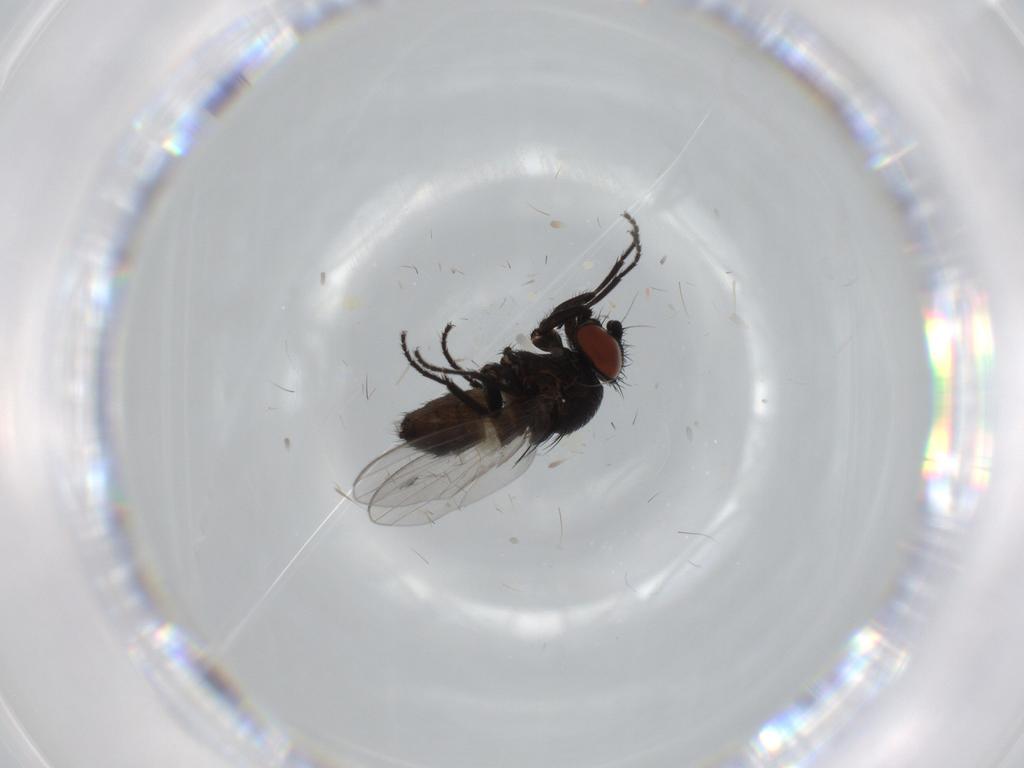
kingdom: Animalia
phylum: Arthropoda
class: Insecta
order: Diptera
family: Milichiidae
